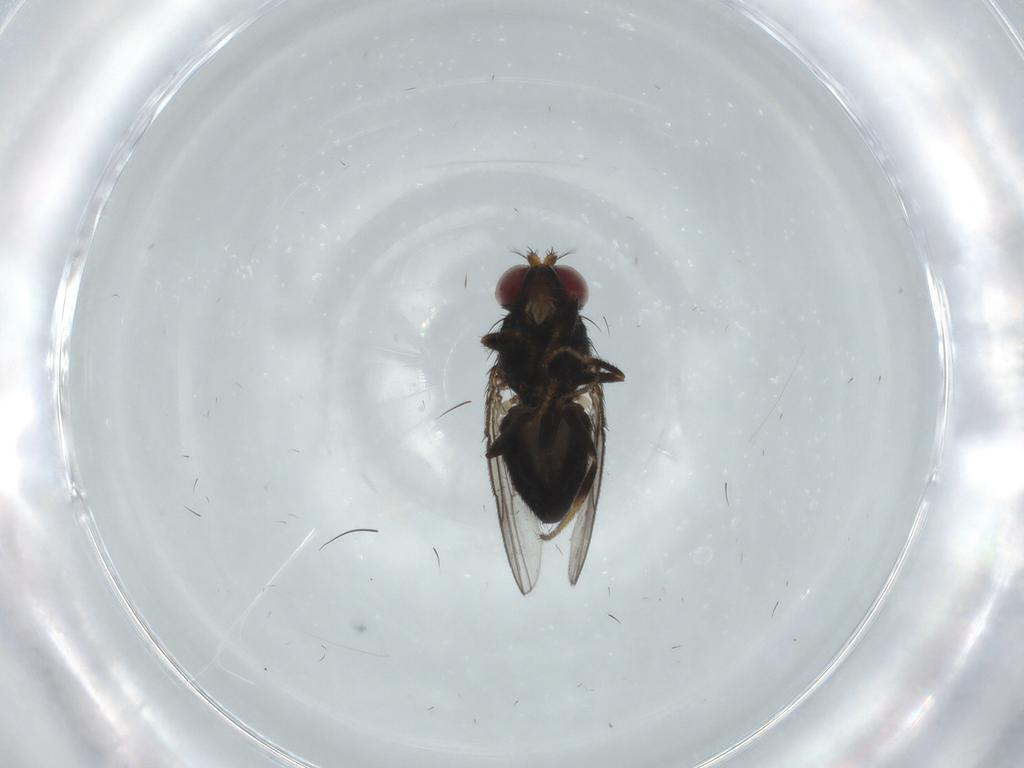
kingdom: Animalia
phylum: Arthropoda
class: Insecta
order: Diptera
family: Ephydridae
